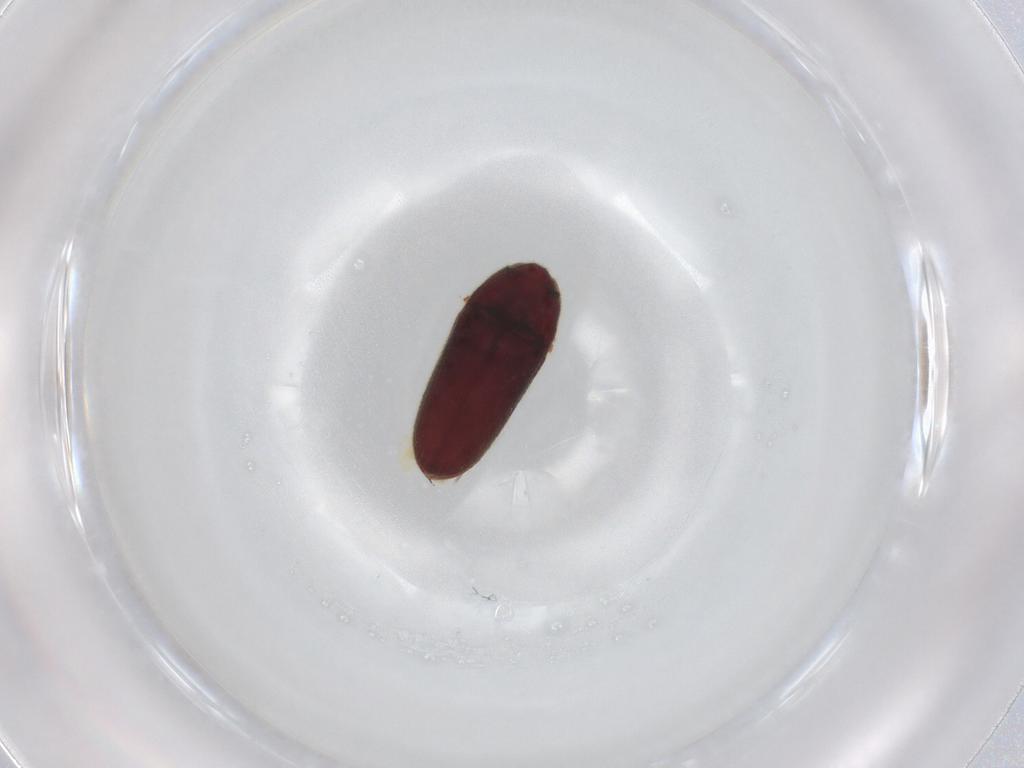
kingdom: Animalia
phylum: Arthropoda
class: Insecta
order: Coleoptera
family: Throscidae
